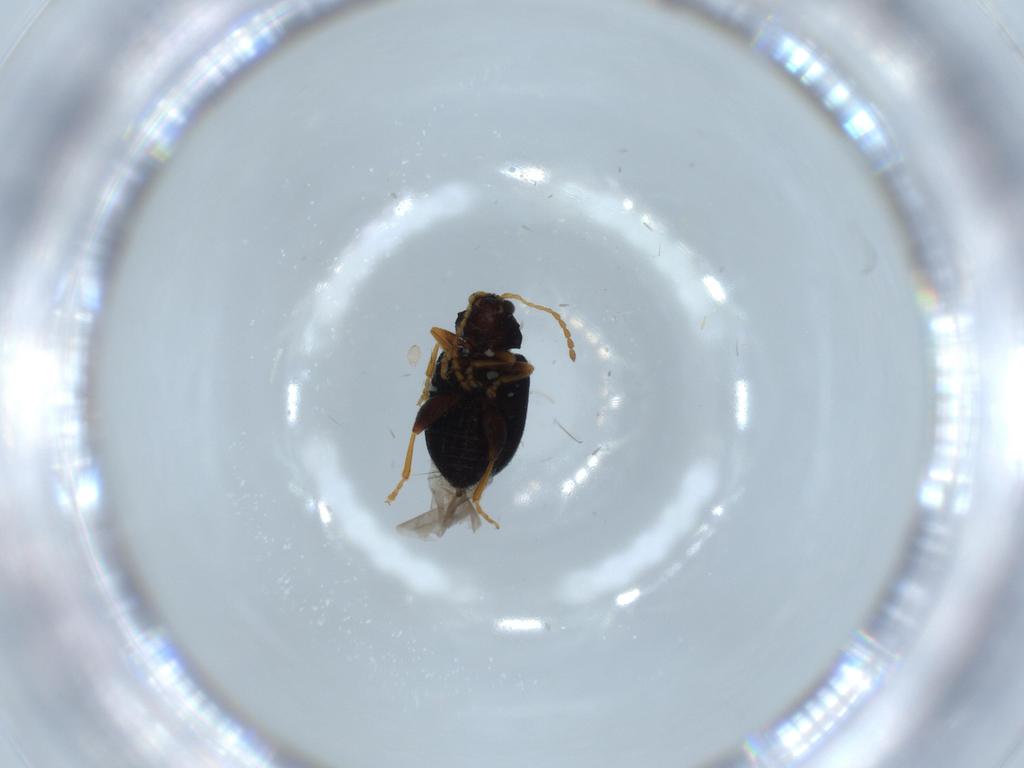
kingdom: Animalia
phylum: Arthropoda
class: Insecta
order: Coleoptera
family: Chrysomelidae
